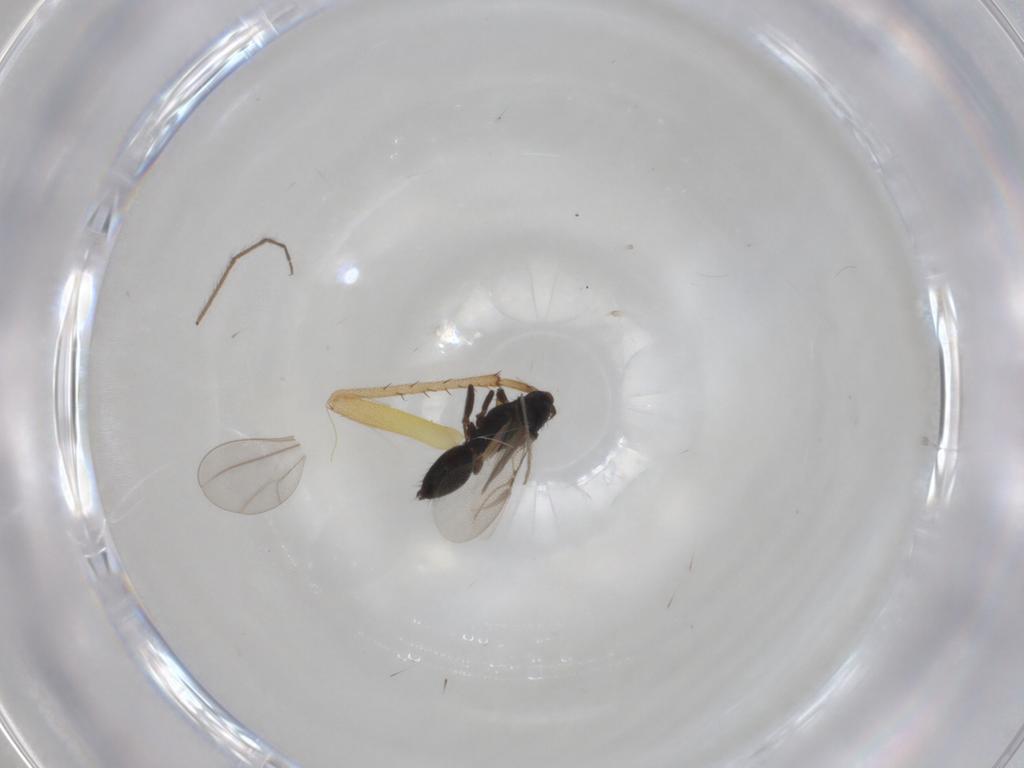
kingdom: Animalia
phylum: Arthropoda
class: Insecta
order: Hymenoptera
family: Bethylidae
